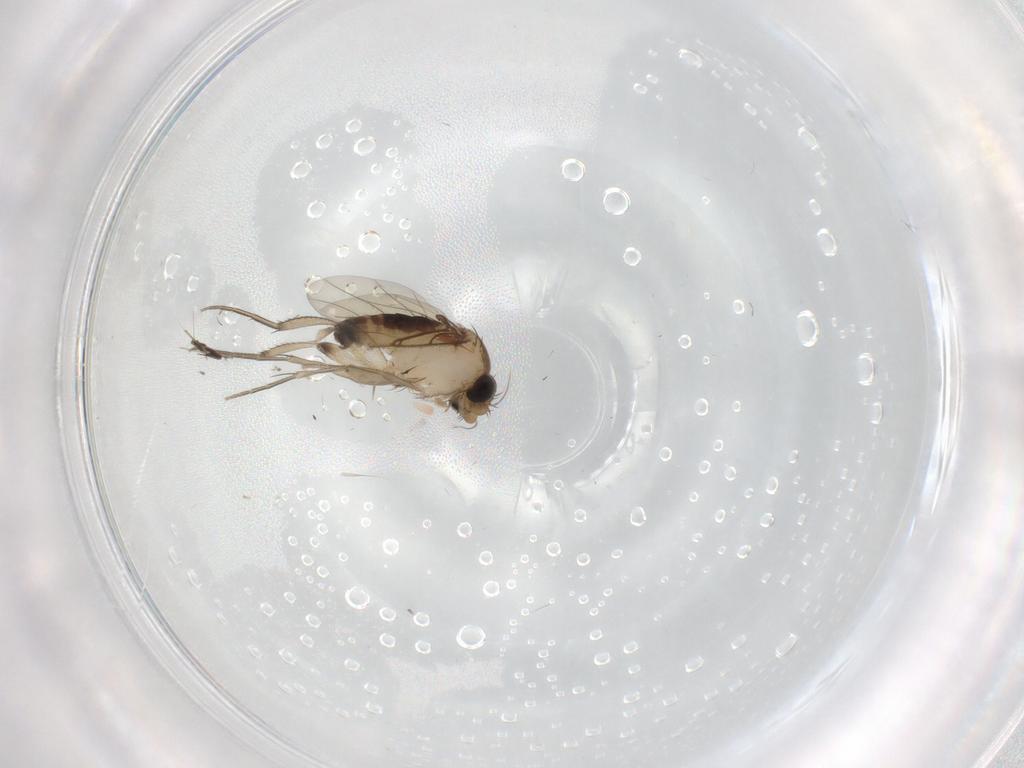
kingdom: Animalia
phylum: Arthropoda
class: Insecta
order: Diptera
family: Phoridae
